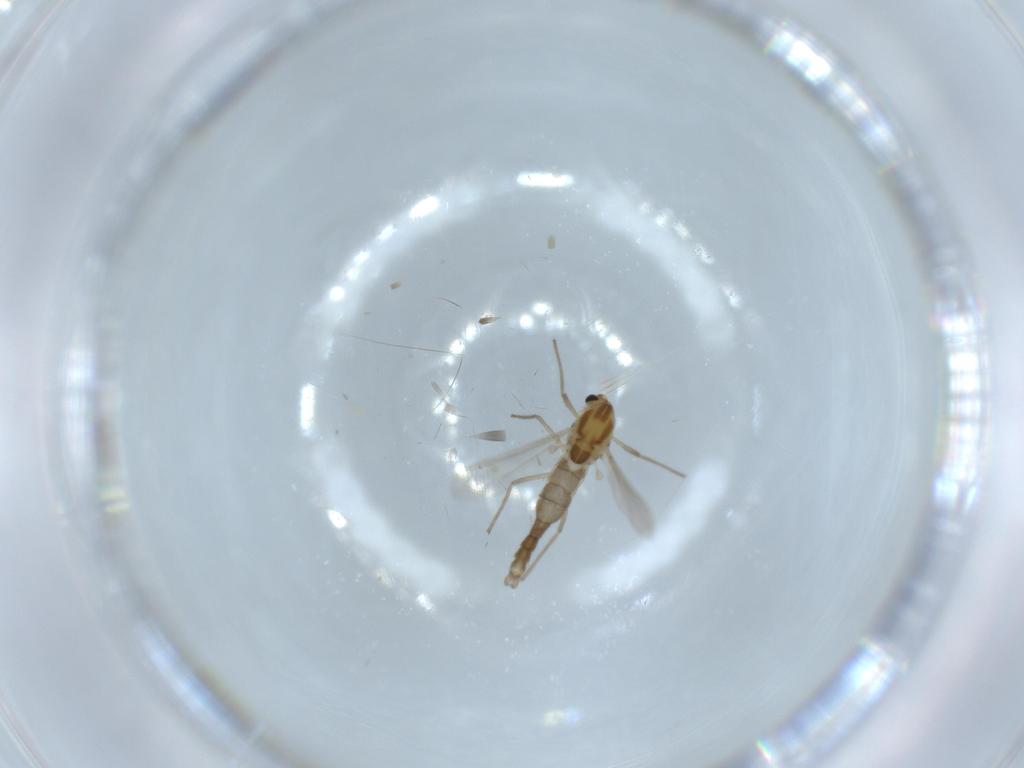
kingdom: Animalia
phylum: Arthropoda
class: Insecta
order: Diptera
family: Chironomidae
